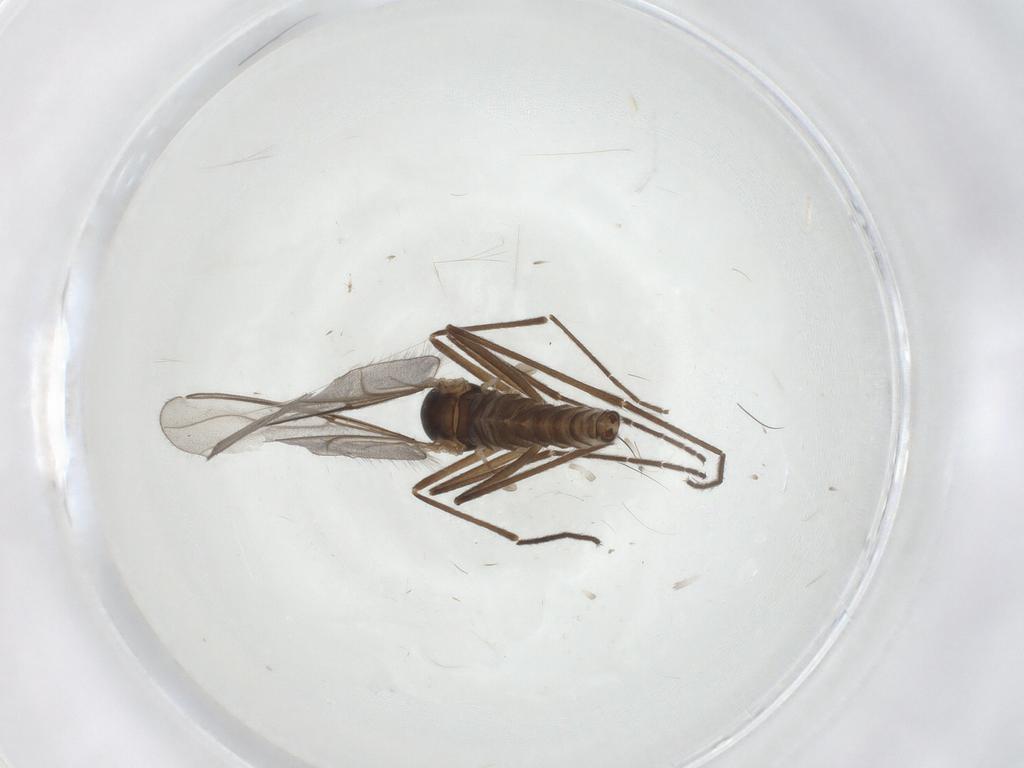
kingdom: Animalia
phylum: Arthropoda
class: Insecta
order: Diptera
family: Cecidomyiidae
